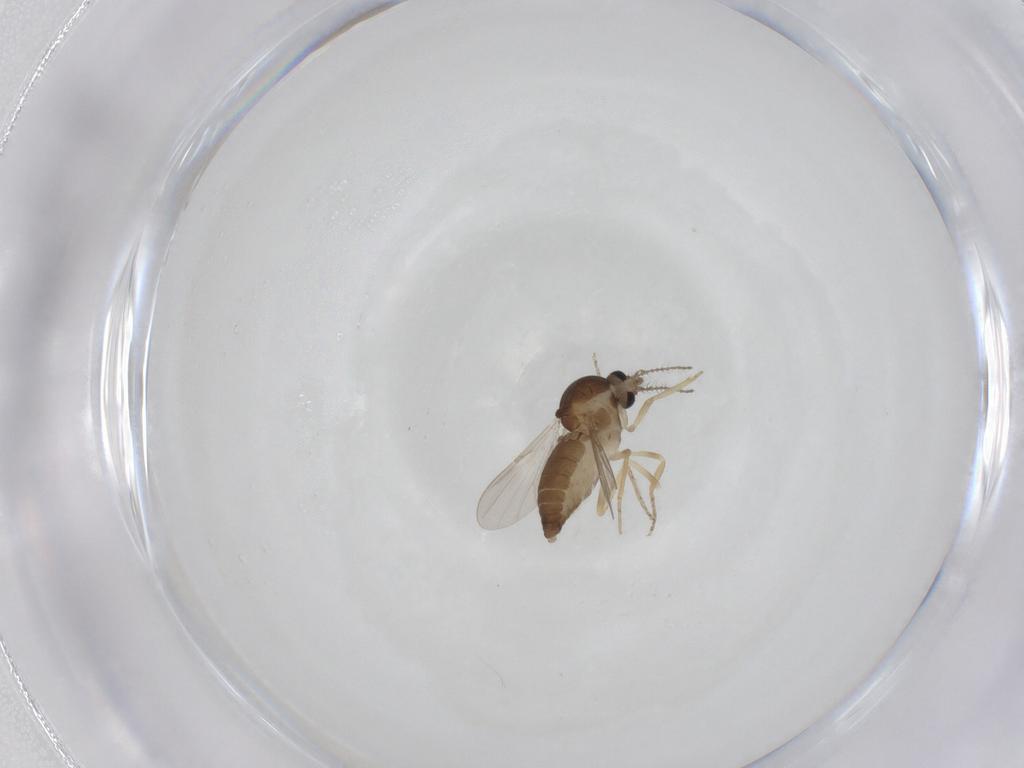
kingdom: Animalia
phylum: Arthropoda
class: Insecta
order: Diptera
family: Ceratopogonidae
